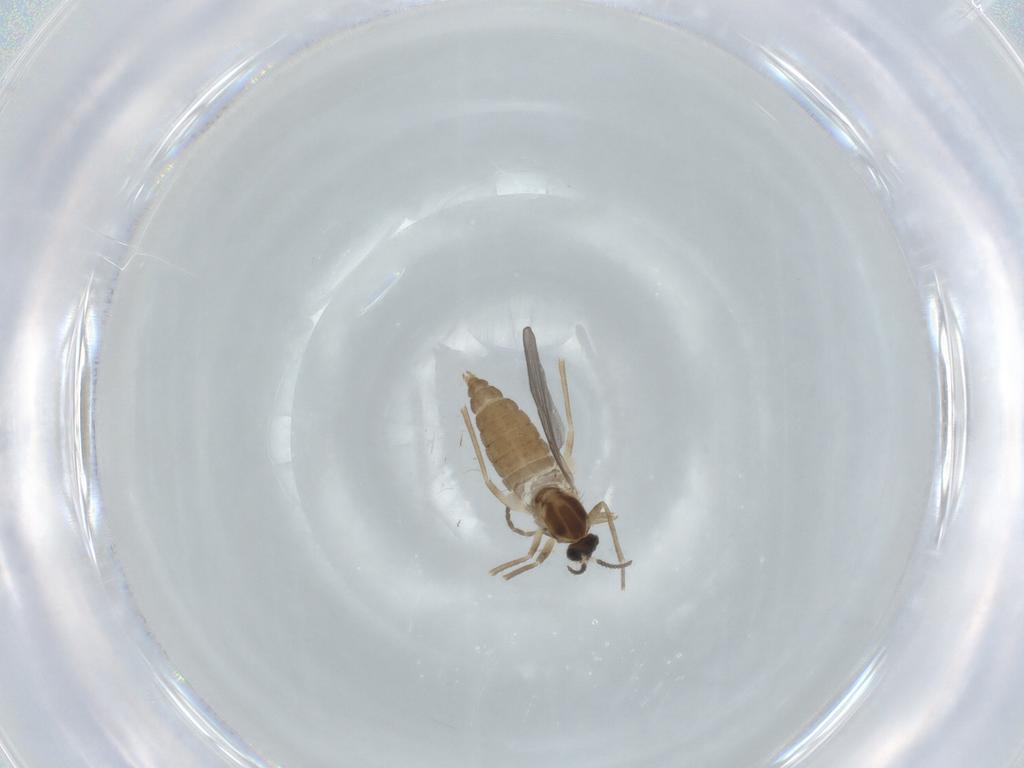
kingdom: Animalia
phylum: Arthropoda
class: Insecta
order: Diptera
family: Cecidomyiidae
